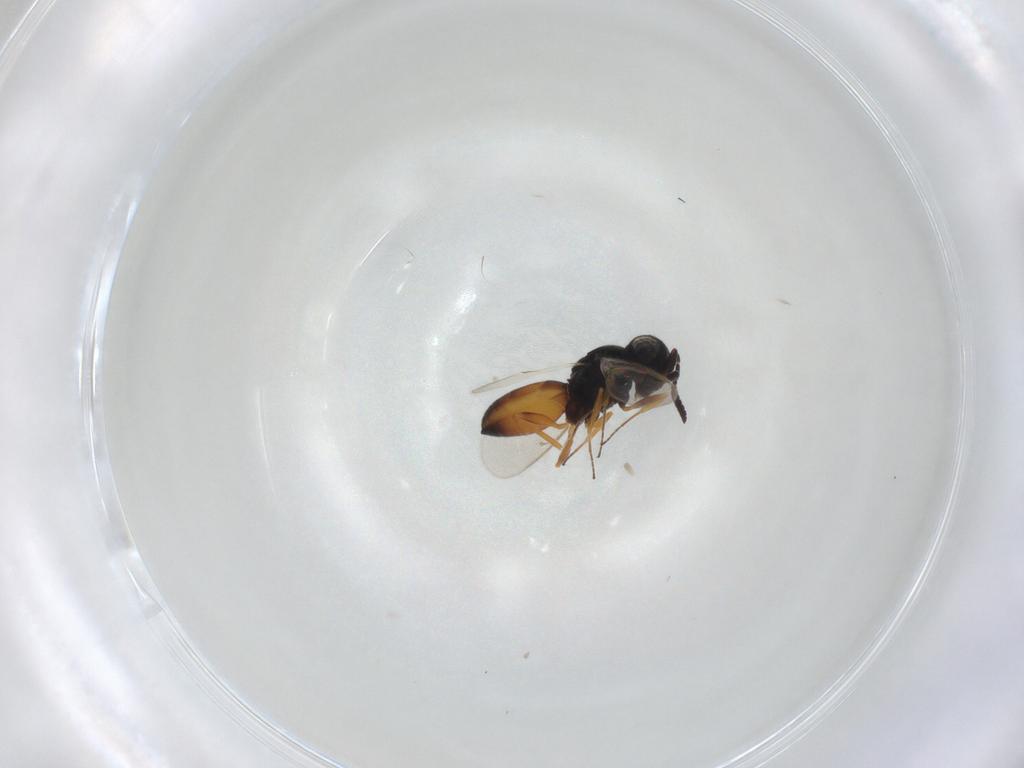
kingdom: Animalia
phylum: Arthropoda
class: Insecta
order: Hymenoptera
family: Scelionidae
